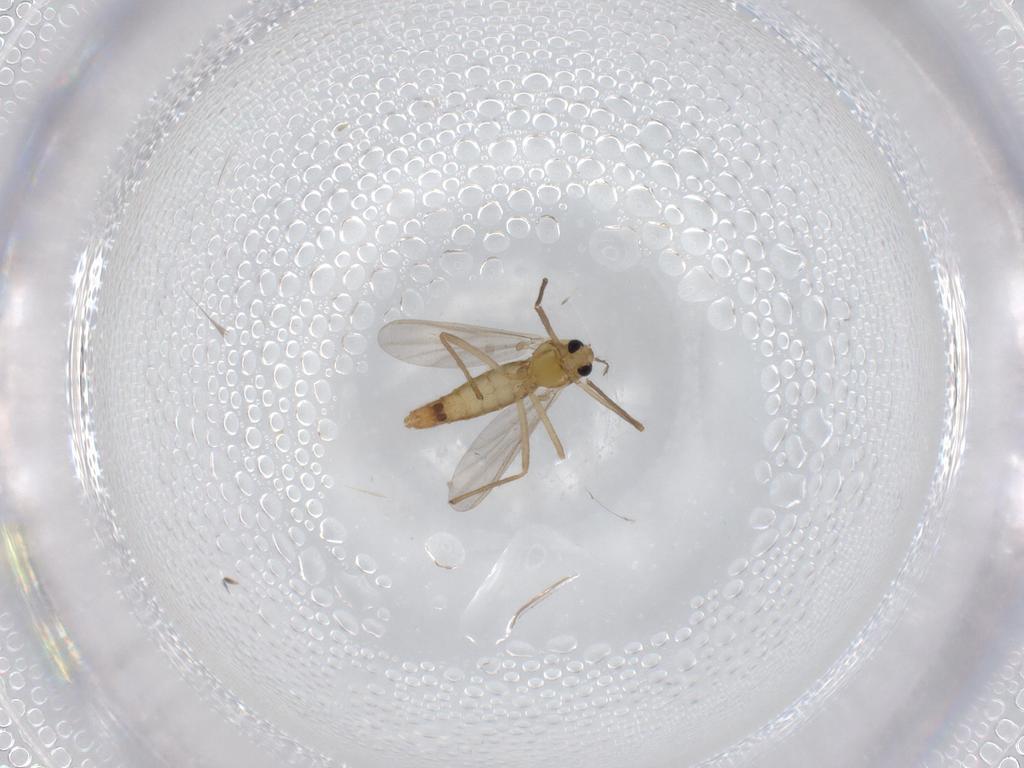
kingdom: Animalia
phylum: Arthropoda
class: Insecta
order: Diptera
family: Chironomidae
